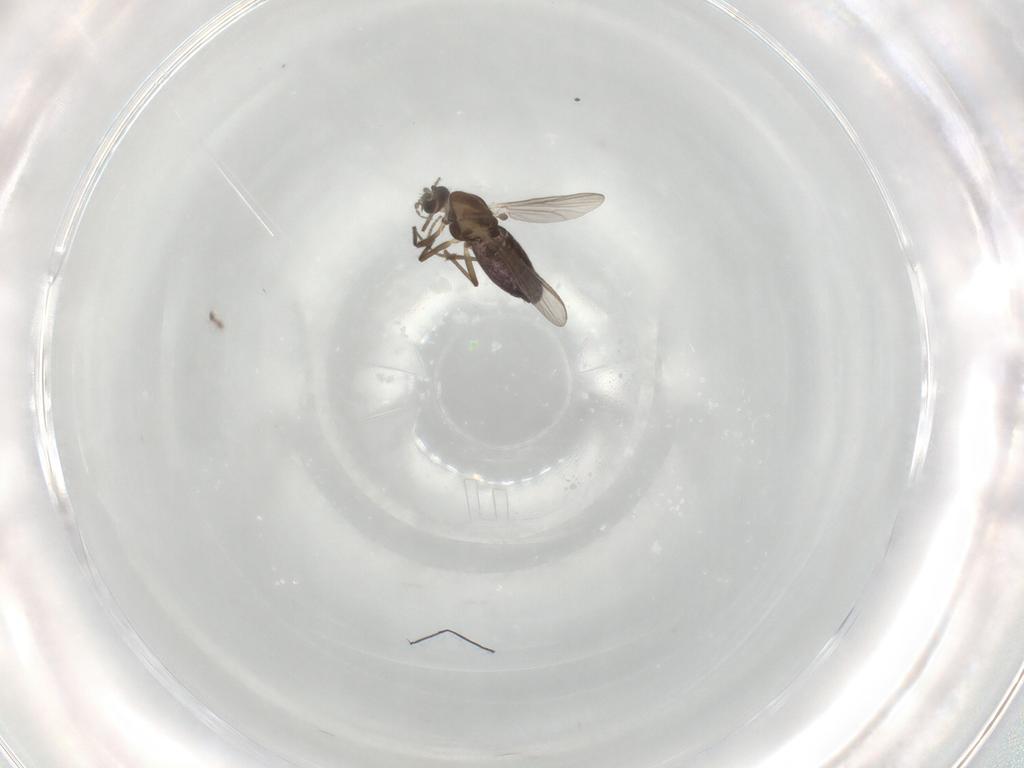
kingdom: Animalia
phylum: Arthropoda
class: Insecta
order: Diptera
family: Chironomidae
